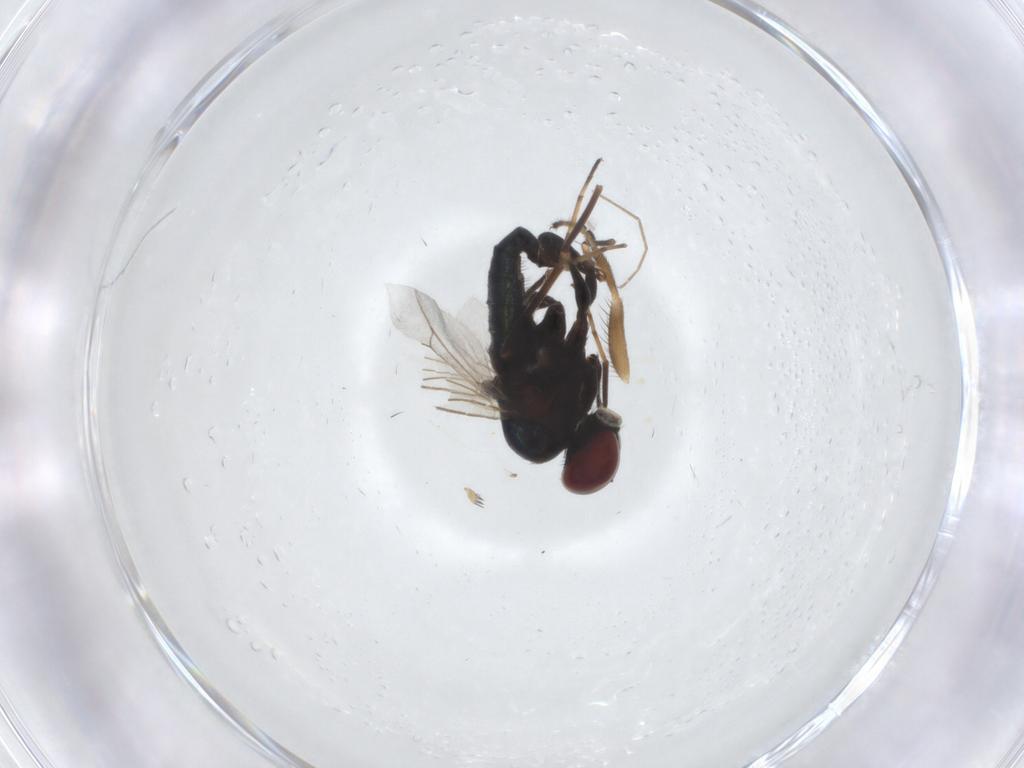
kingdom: Animalia
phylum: Arthropoda
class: Insecta
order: Diptera
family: Dolichopodidae
